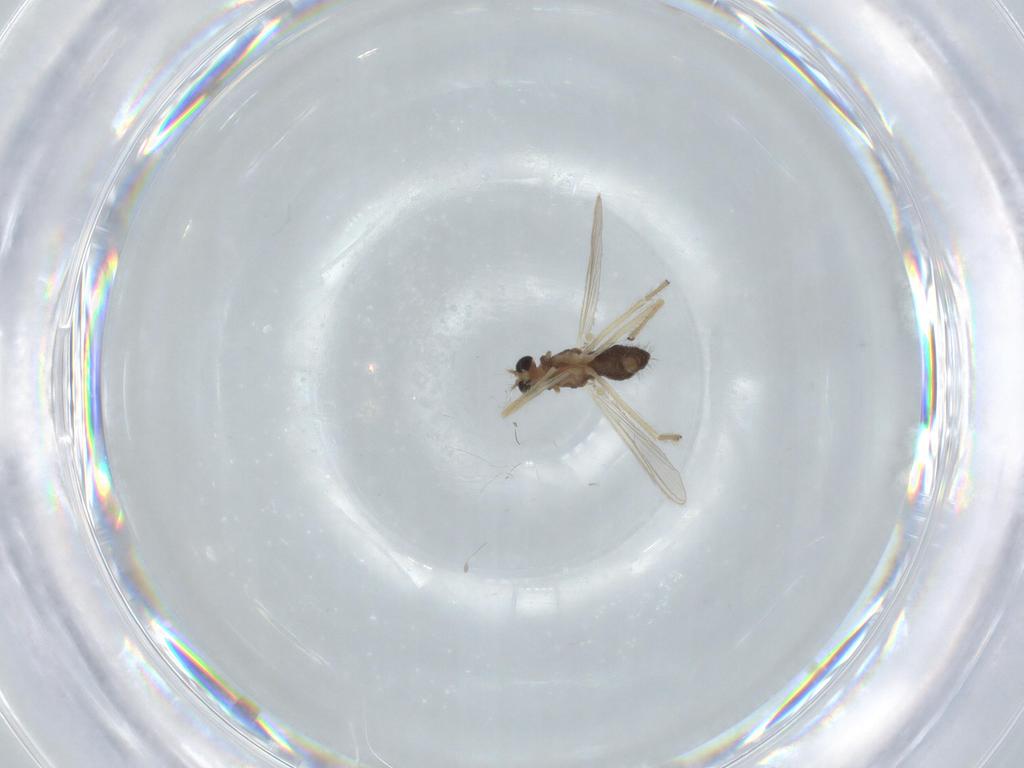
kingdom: Animalia
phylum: Arthropoda
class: Insecta
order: Diptera
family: Chironomidae
